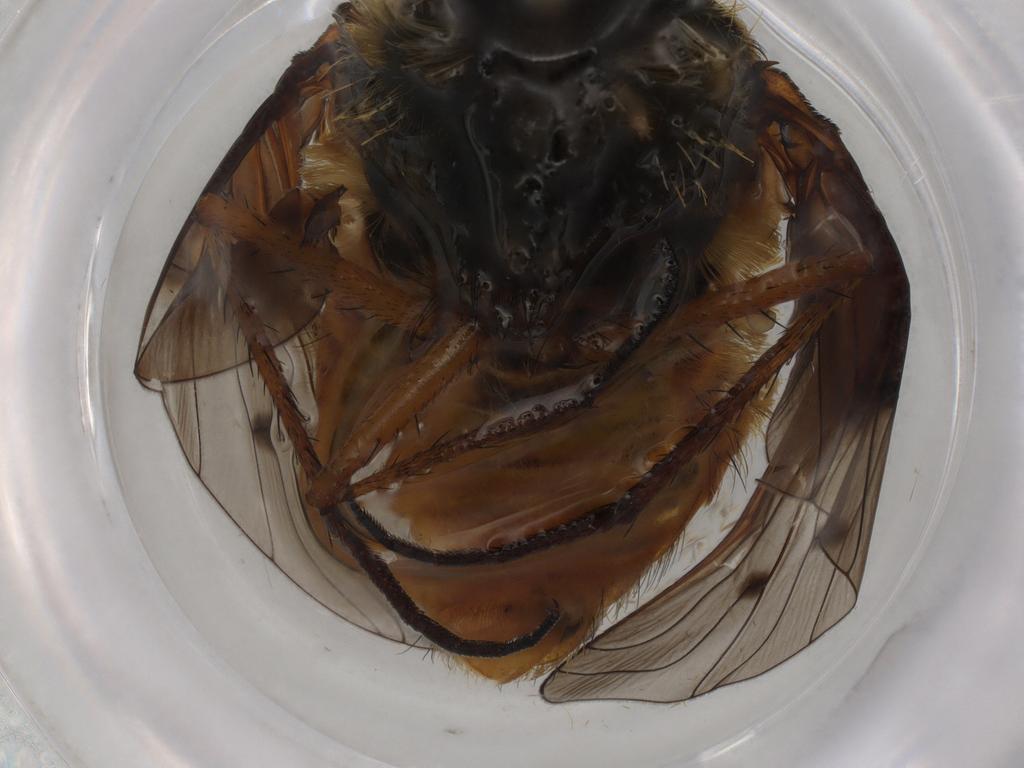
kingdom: Animalia
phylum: Arthropoda
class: Insecta
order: Diptera
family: Bombyliidae
